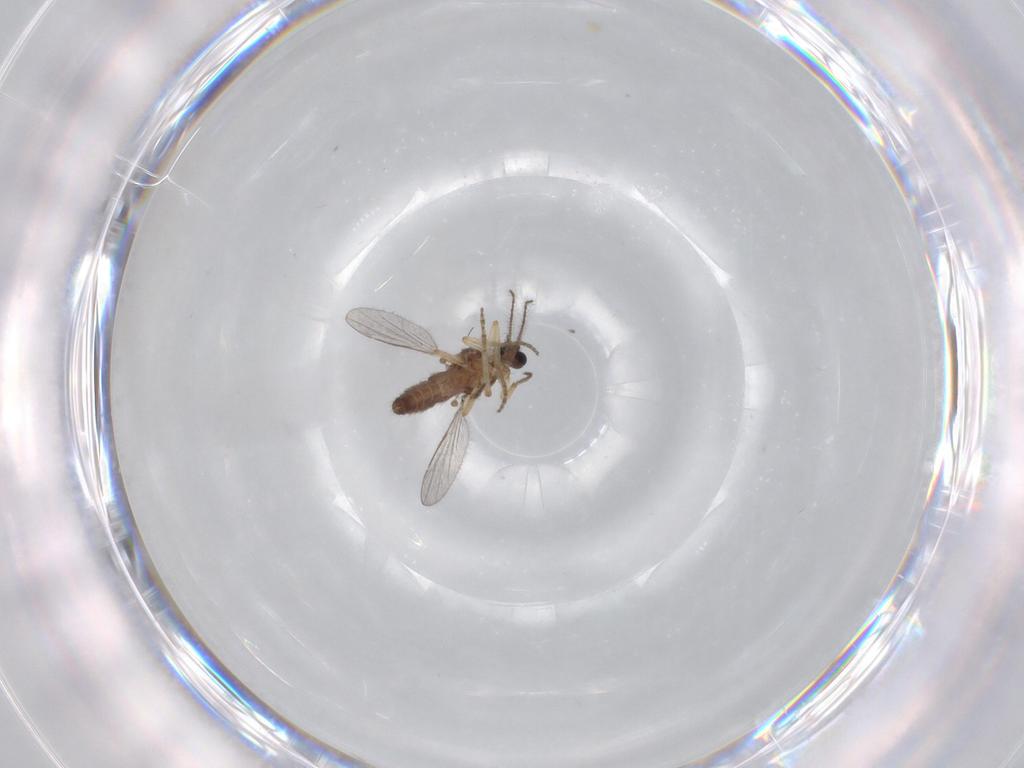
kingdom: Animalia
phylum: Arthropoda
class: Insecta
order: Diptera
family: Ceratopogonidae
